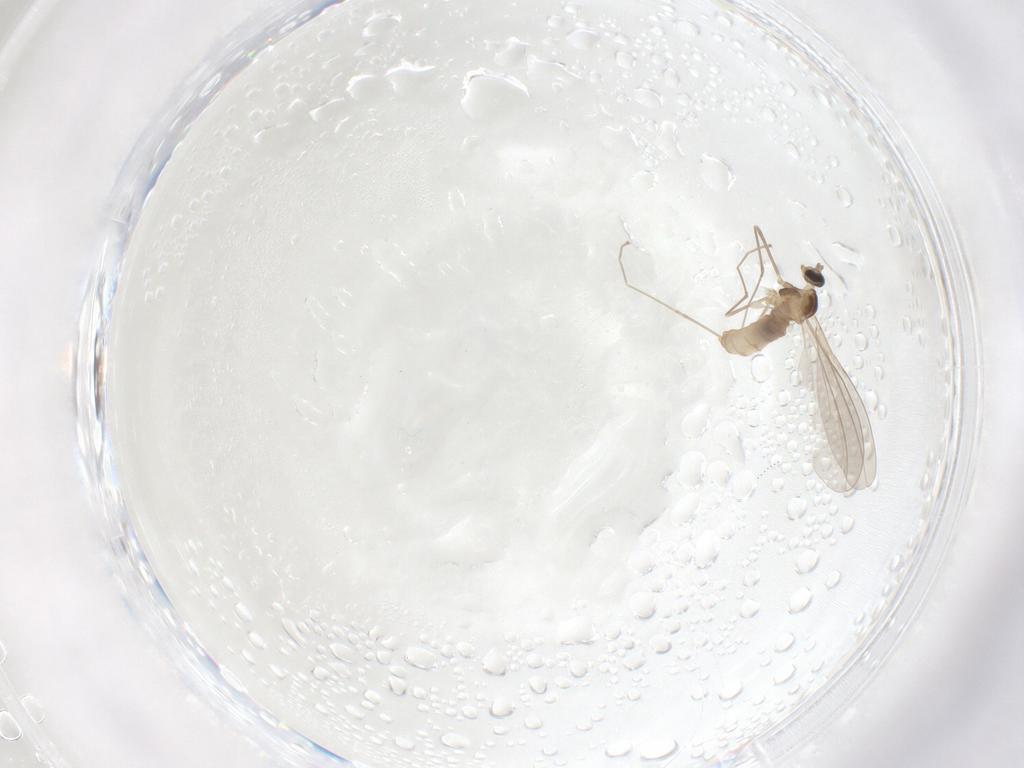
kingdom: Animalia
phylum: Arthropoda
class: Insecta
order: Diptera
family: Cecidomyiidae
